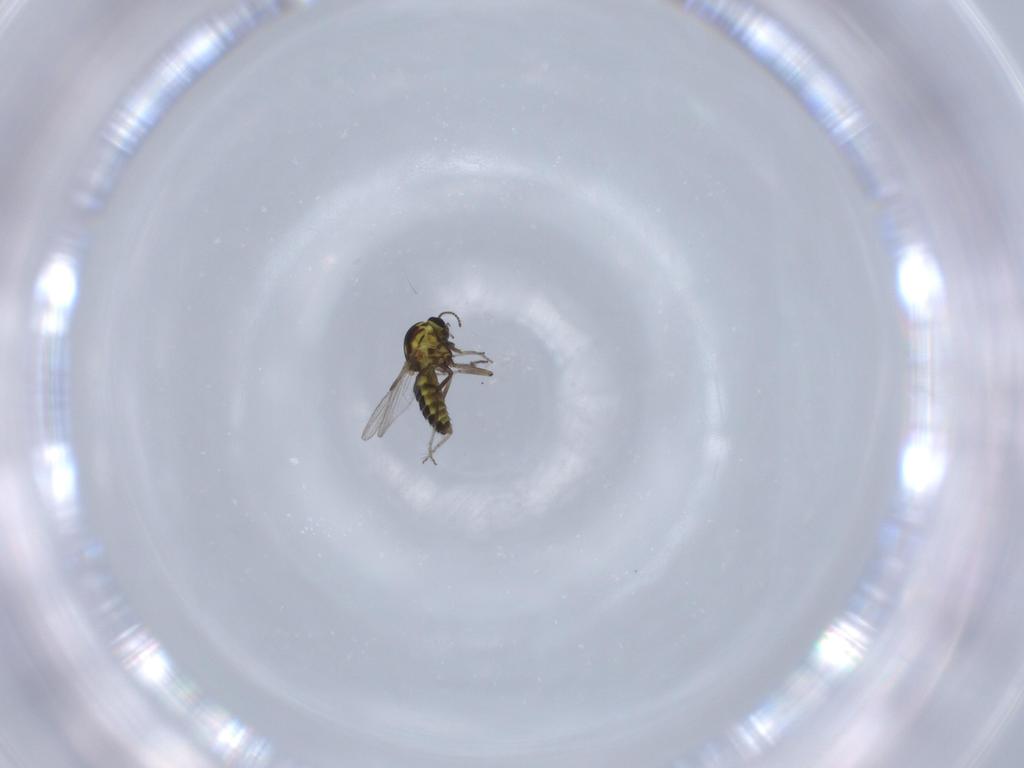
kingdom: Animalia
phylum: Arthropoda
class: Insecta
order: Diptera
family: Ceratopogonidae
